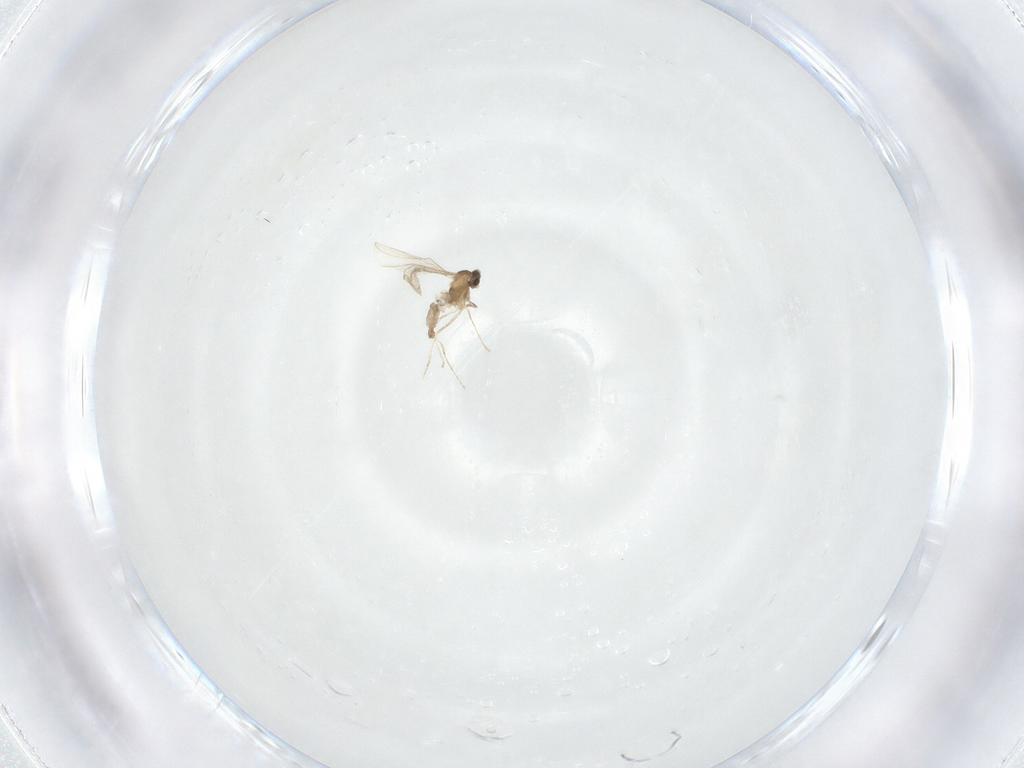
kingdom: Animalia
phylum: Arthropoda
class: Insecta
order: Diptera
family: Cecidomyiidae
